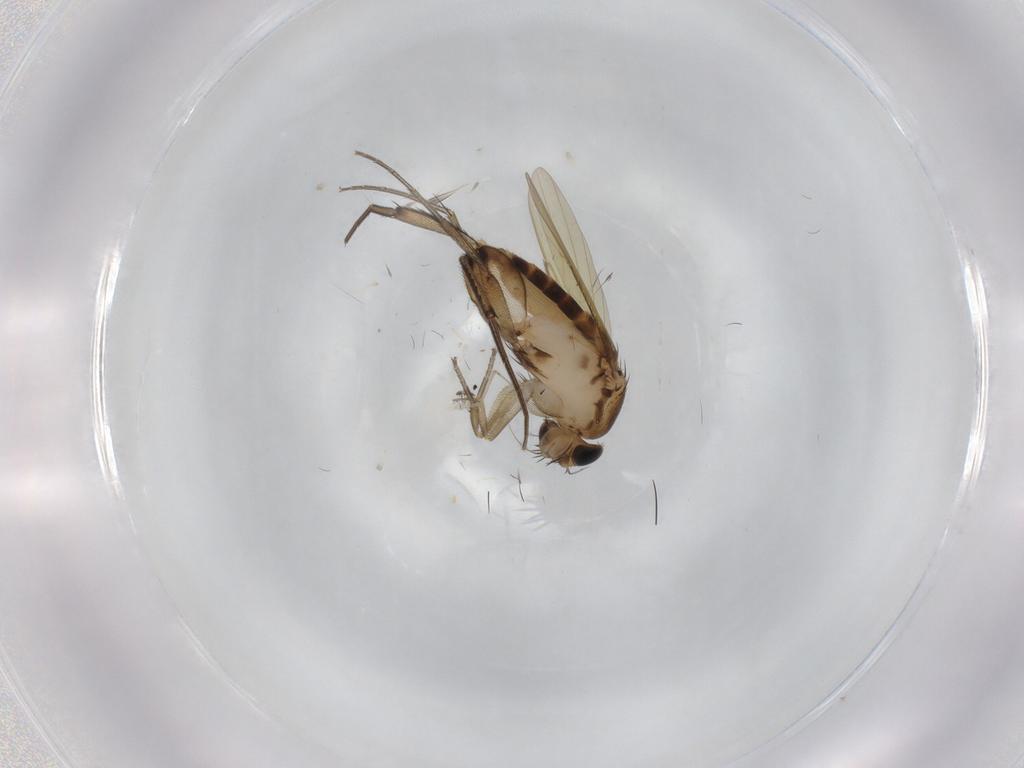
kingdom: Animalia
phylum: Arthropoda
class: Insecta
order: Diptera
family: Phoridae
